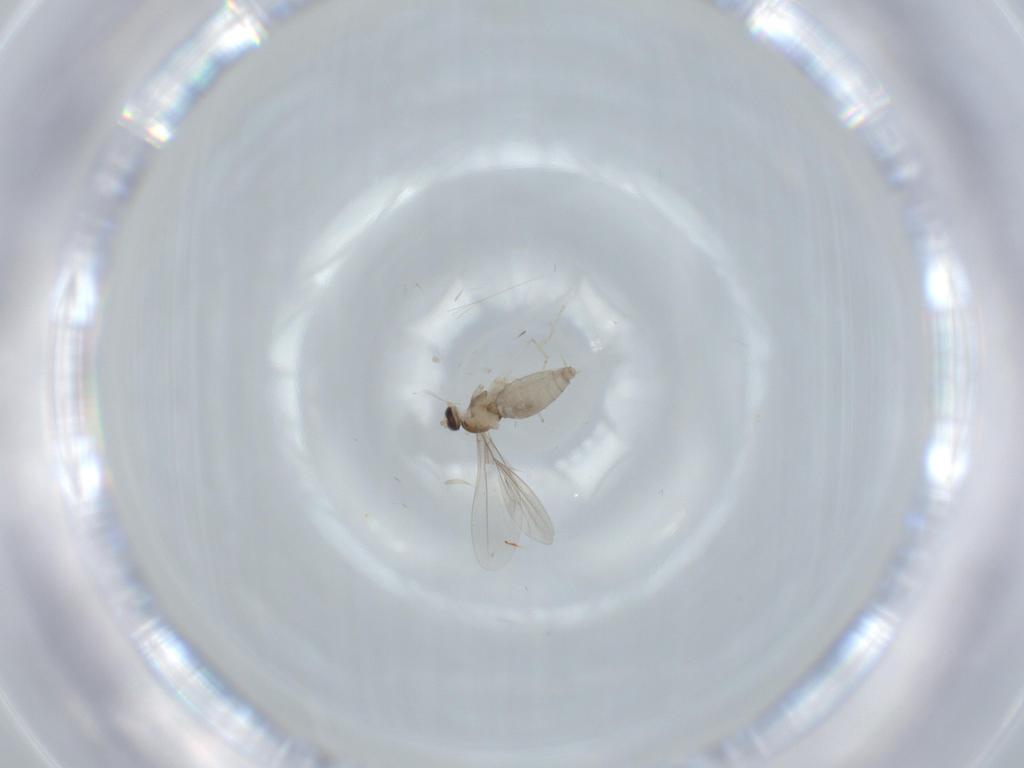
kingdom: Animalia
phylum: Arthropoda
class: Insecta
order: Diptera
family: Cecidomyiidae
